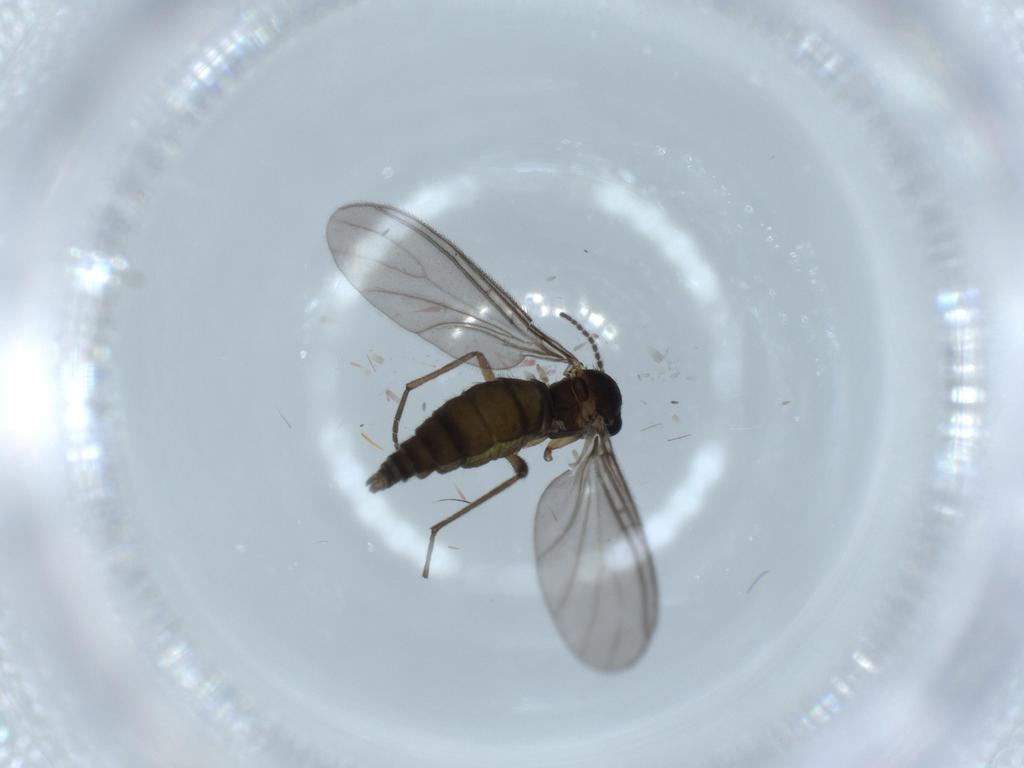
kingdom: Animalia
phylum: Arthropoda
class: Insecta
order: Diptera
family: Sciaridae
